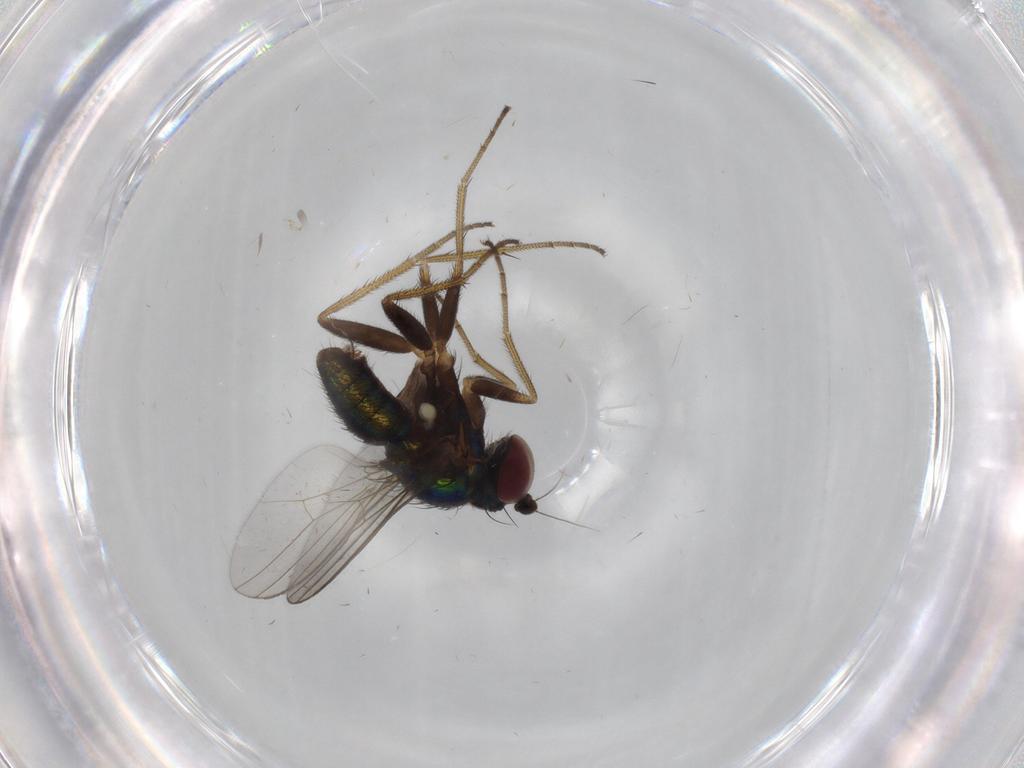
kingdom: Animalia
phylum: Arthropoda
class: Insecta
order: Diptera
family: Dolichopodidae
